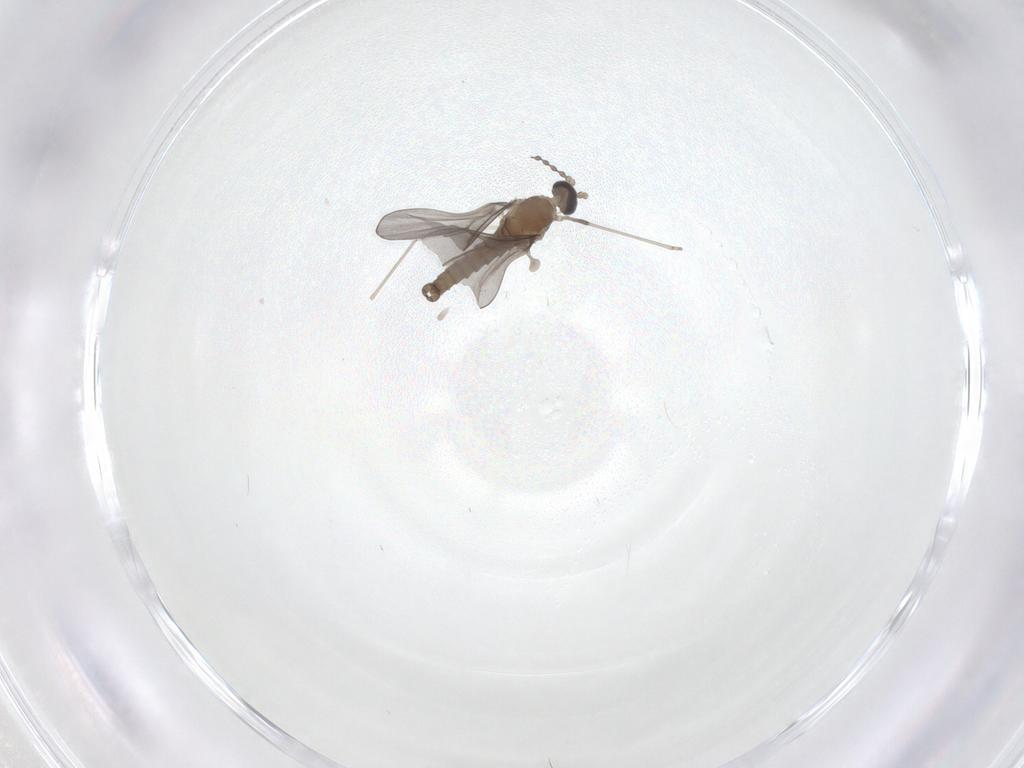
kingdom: Animalia
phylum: Arthropoda
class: Insecta
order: Diptera
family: Cecidomyiidae
